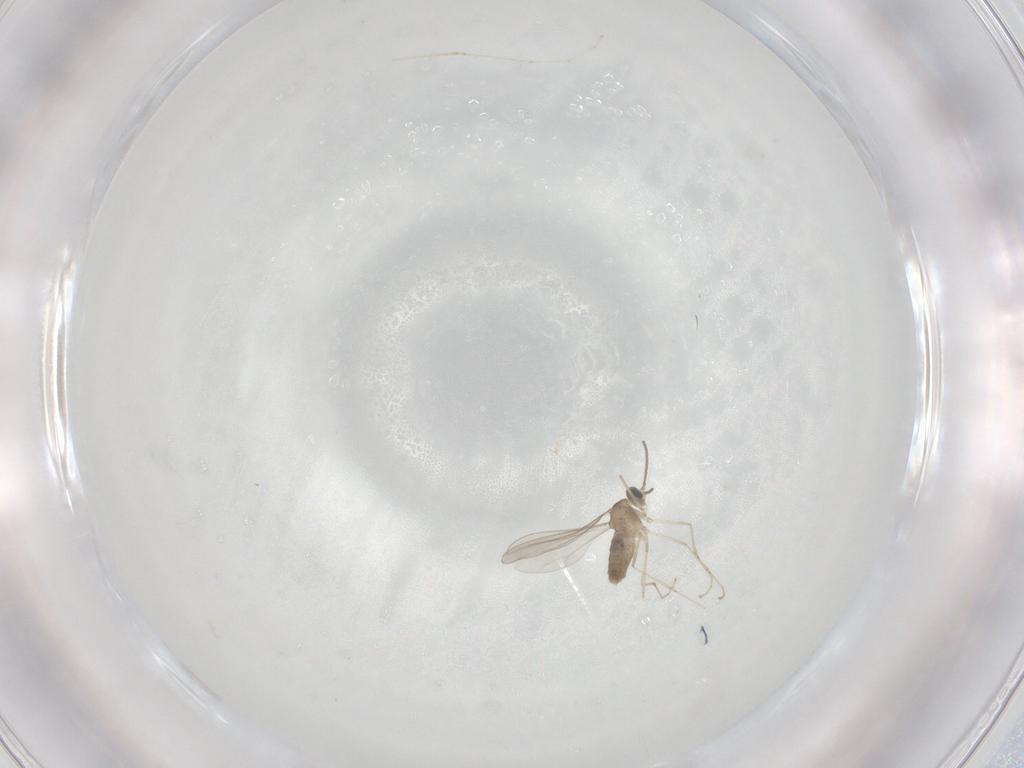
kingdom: Animalia
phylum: Arthropoda
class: Insecta
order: Diptera
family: Cecidomyiidae
